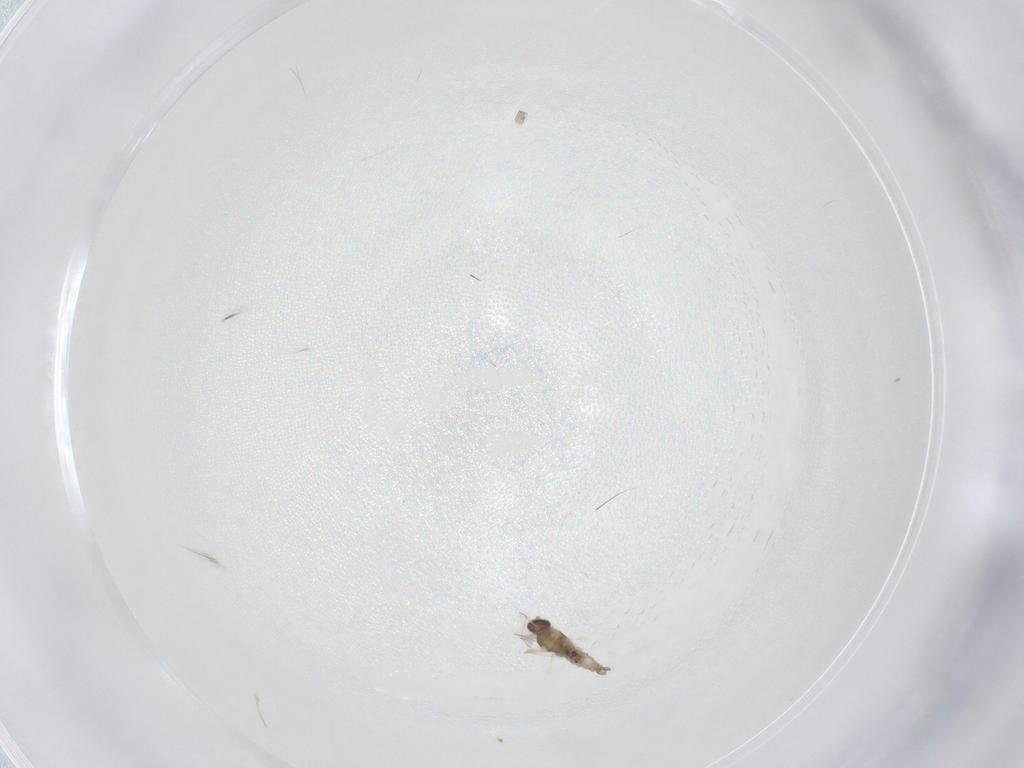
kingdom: Animalia
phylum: Arthropoda
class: Insecta
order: Diptera
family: Cecidomyiidae
